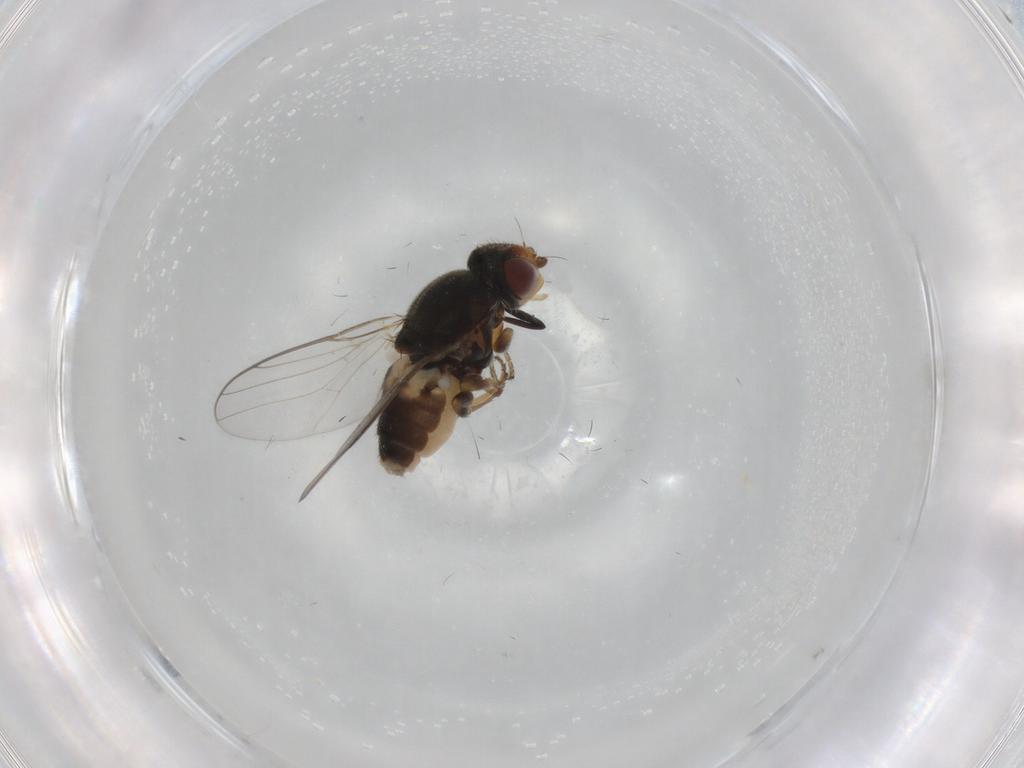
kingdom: Animalia
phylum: Arthropoda
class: Insecta
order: Diptera
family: Chloropidae
